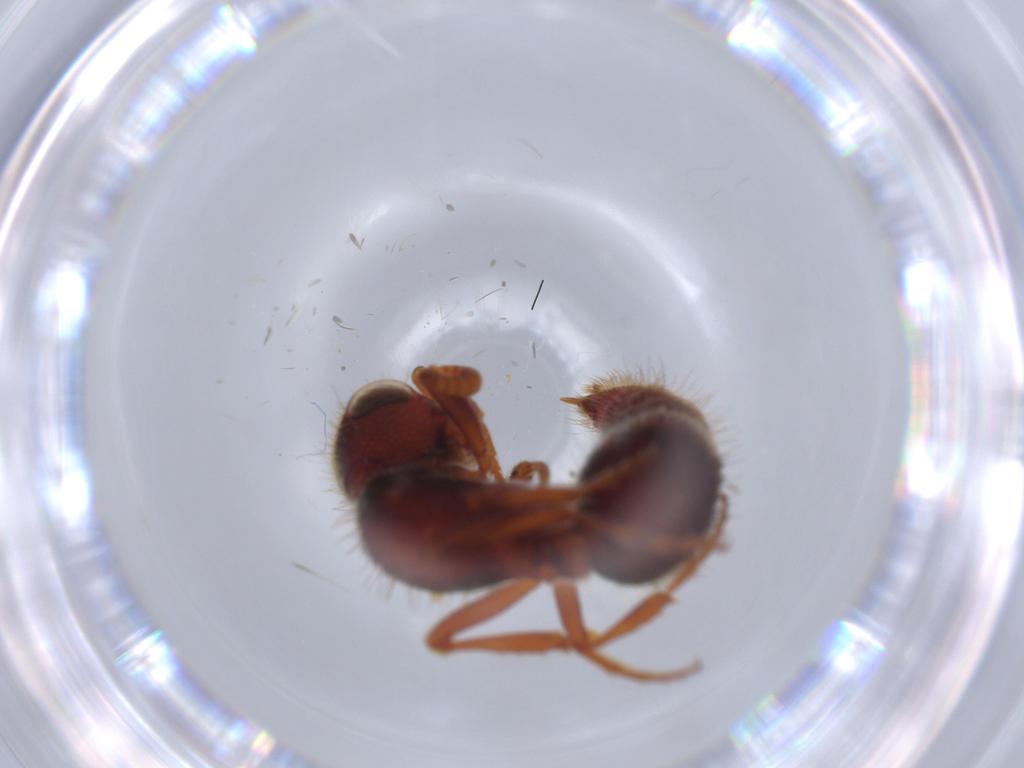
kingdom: Animalia
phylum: Arthropoda
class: Insecta
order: Hymenoptera
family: Formicidae
